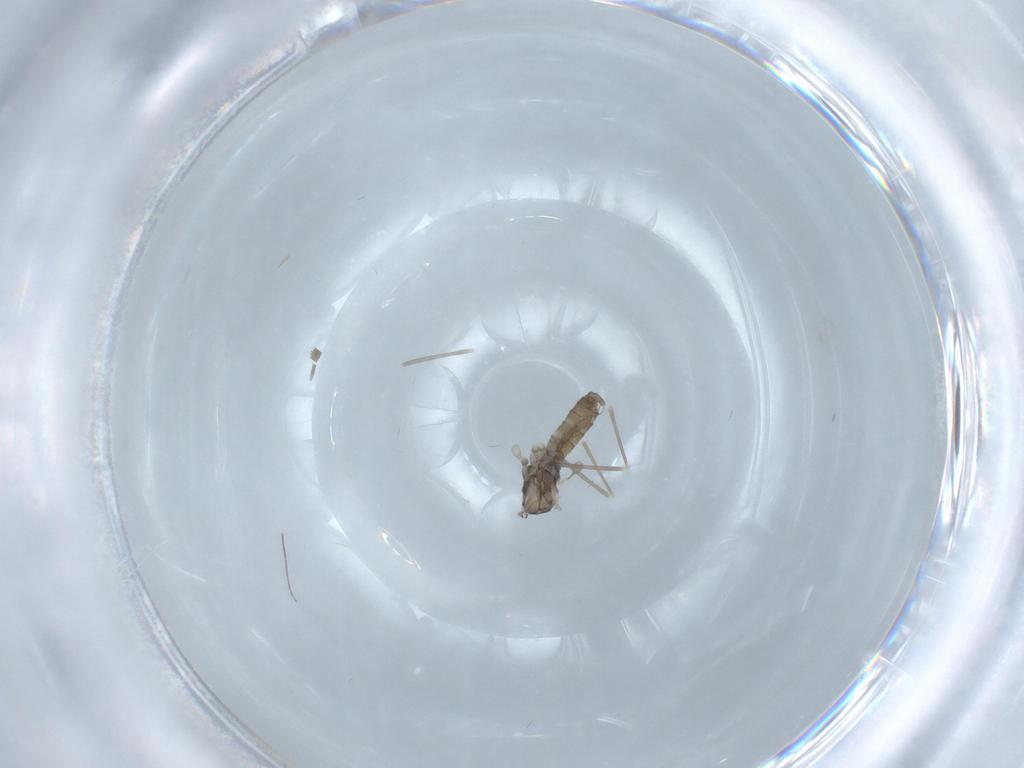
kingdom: Animalia
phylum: Arthropoda
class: Insecta
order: Diptera
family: Cecidomyiidae
